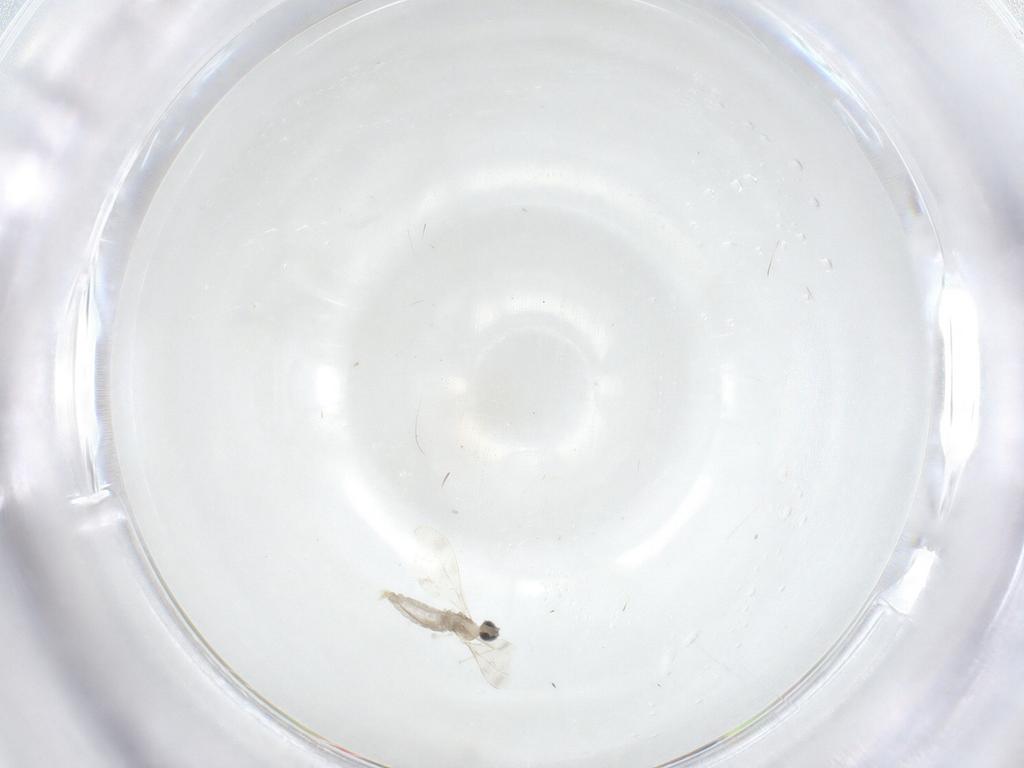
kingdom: Animalia
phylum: Arthropoda
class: Insecta
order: Diptera
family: Cecidomyiidae
